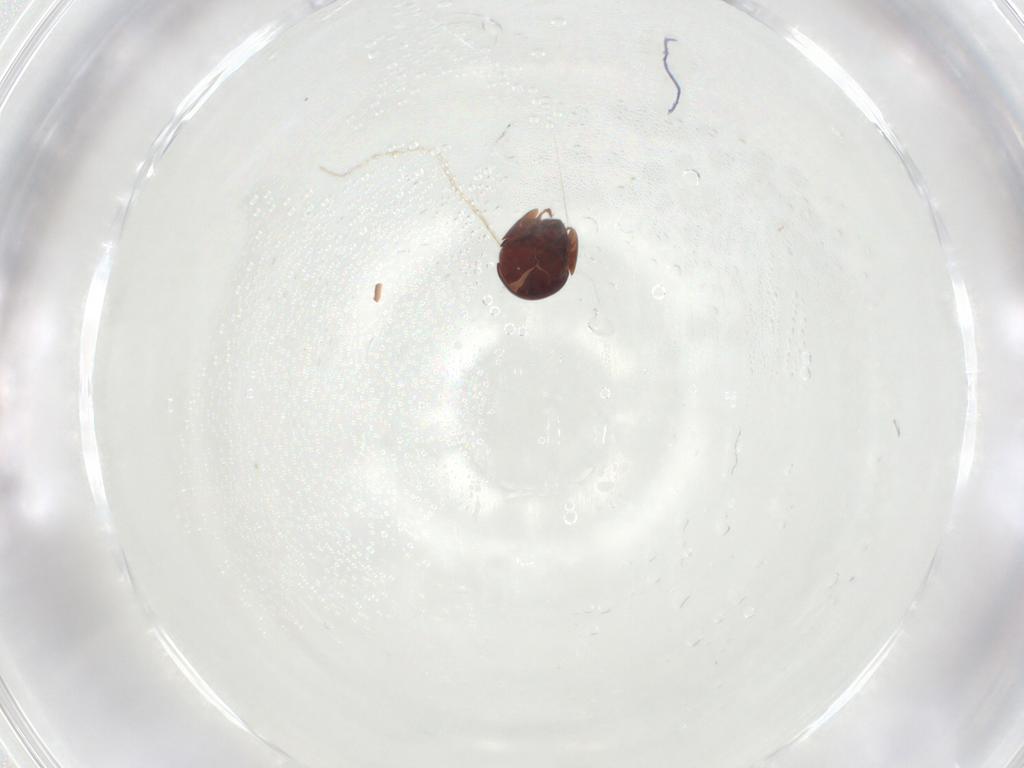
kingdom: Animalia
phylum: Arthropoda
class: Arachnida
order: Sarcoptiformes
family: Galumnidae
